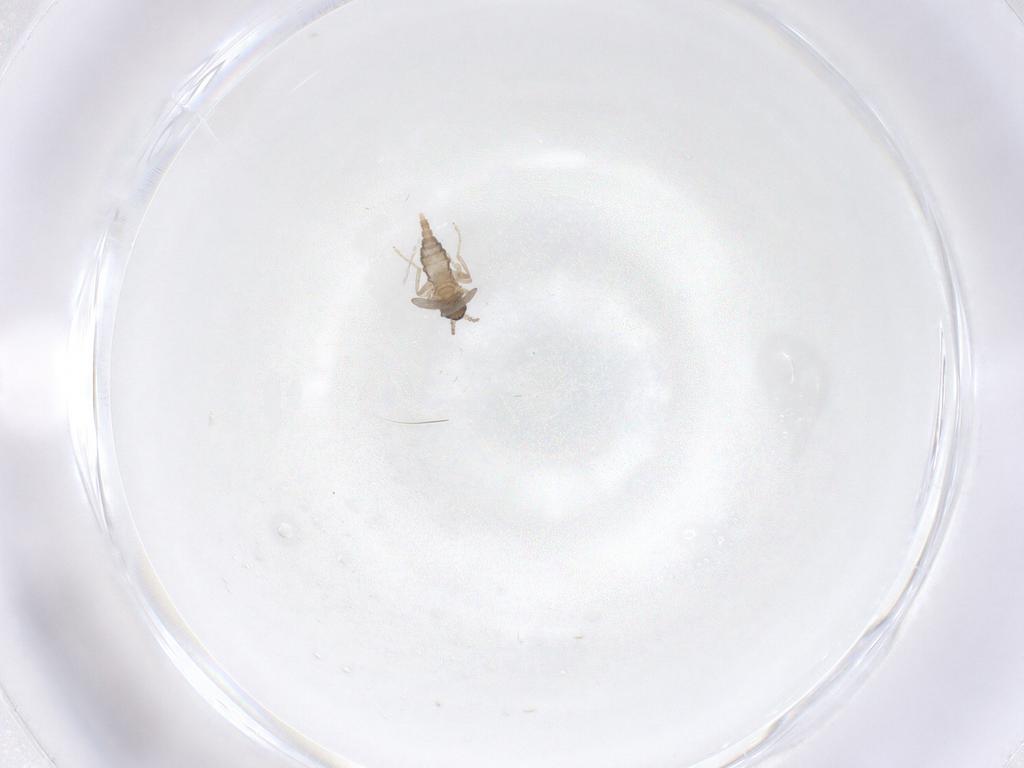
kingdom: Animalia
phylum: Arthropoda
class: Insecta
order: Diptera
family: Cecidomyiidae
